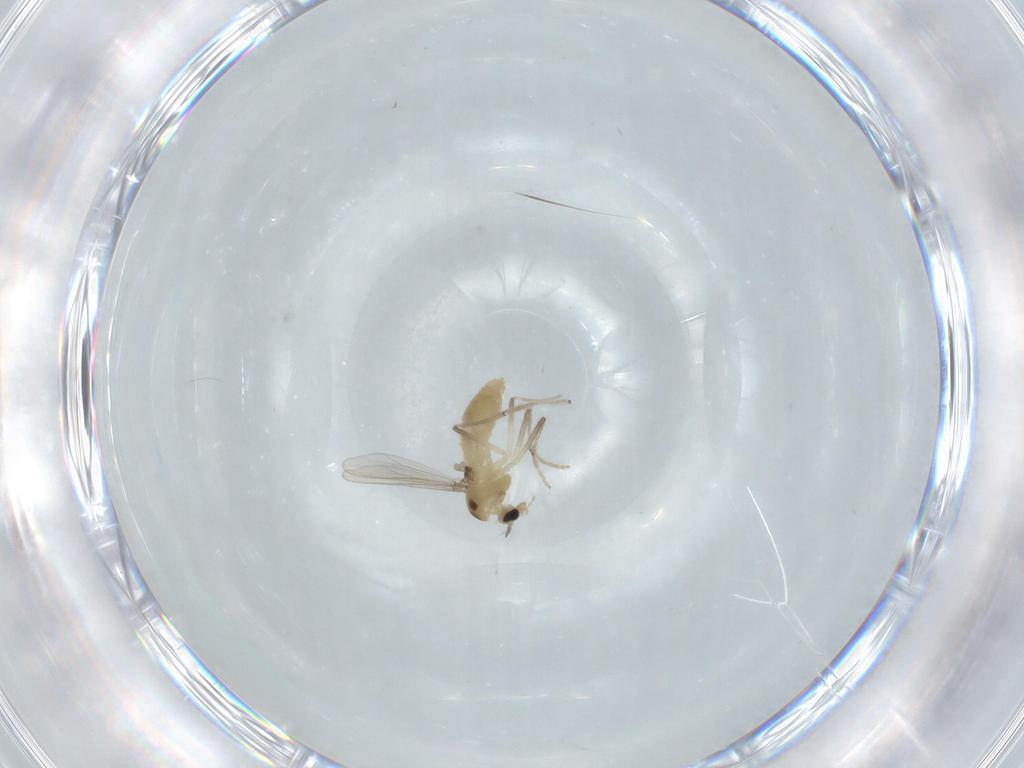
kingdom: Animalia
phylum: Arthropoda
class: Insecta
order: Diptera
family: Chironomidae
